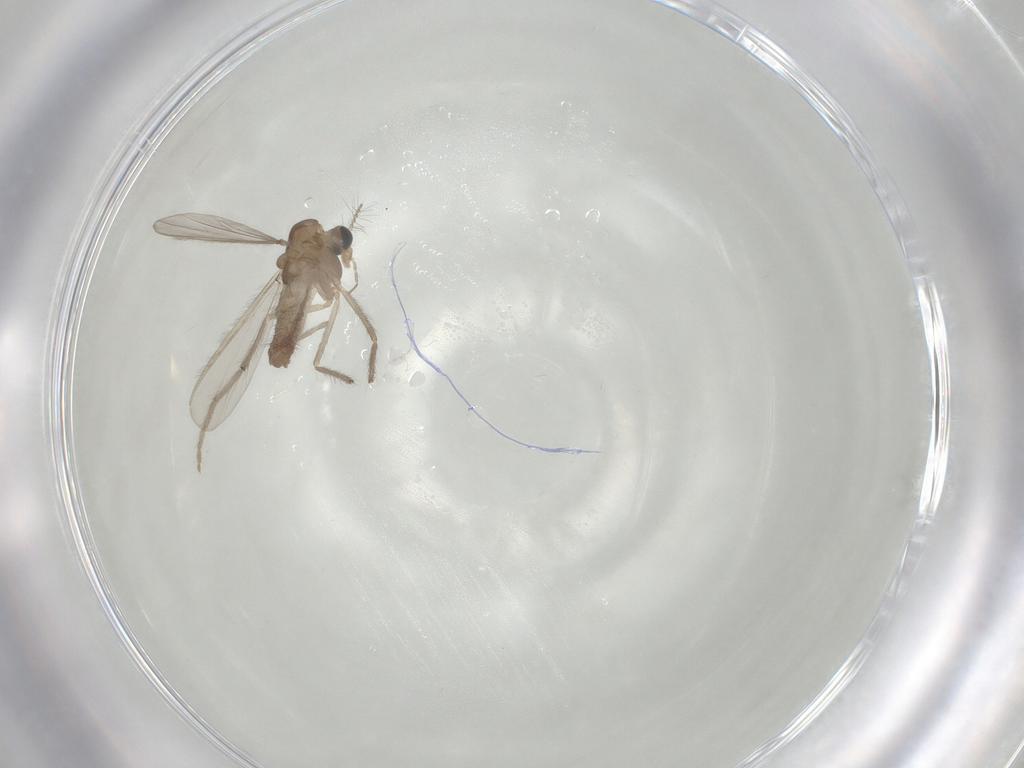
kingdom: Animalia
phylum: Arthropoda
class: Insecta
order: Diptera
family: Chironomidae
